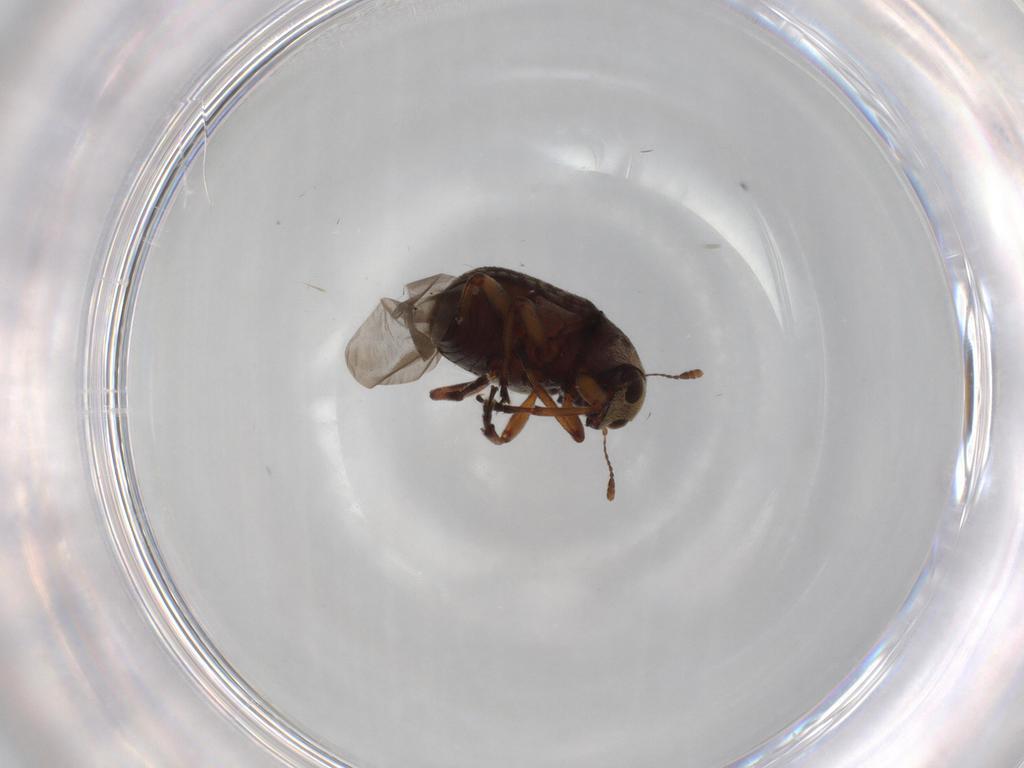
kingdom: Animalia
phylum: Arthropoda
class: Insecta
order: Coleoptera
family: Anthribidae
